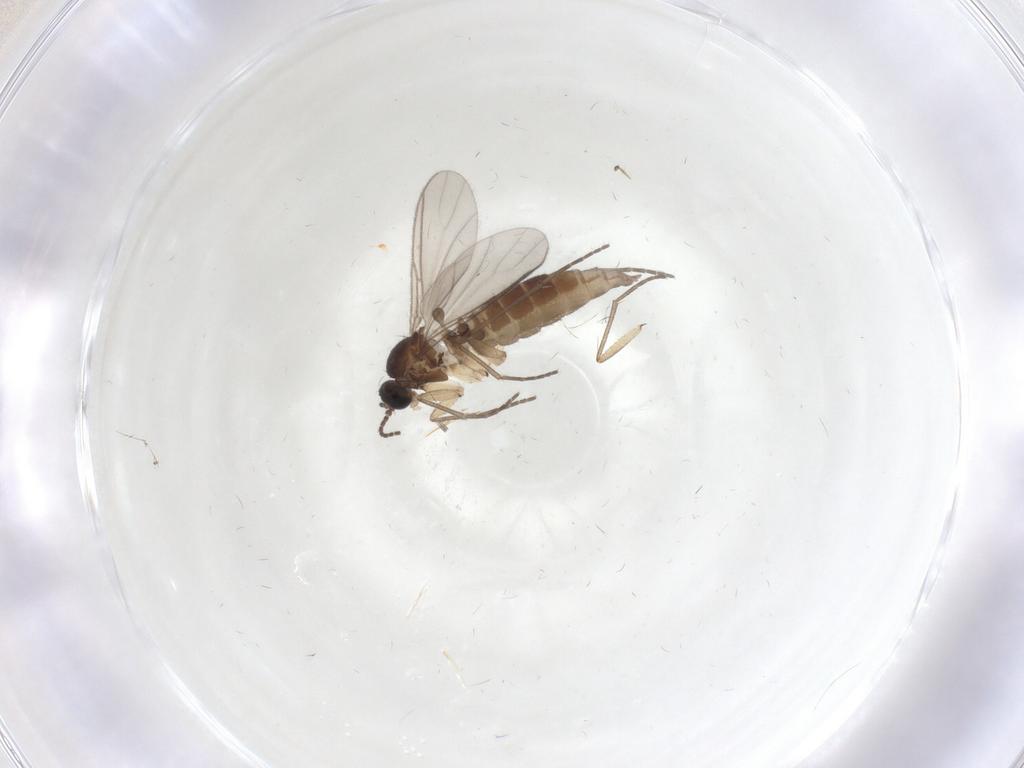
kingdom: Animalia
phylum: Arthropoda
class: Insecta
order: Diptera
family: Sciaridae
